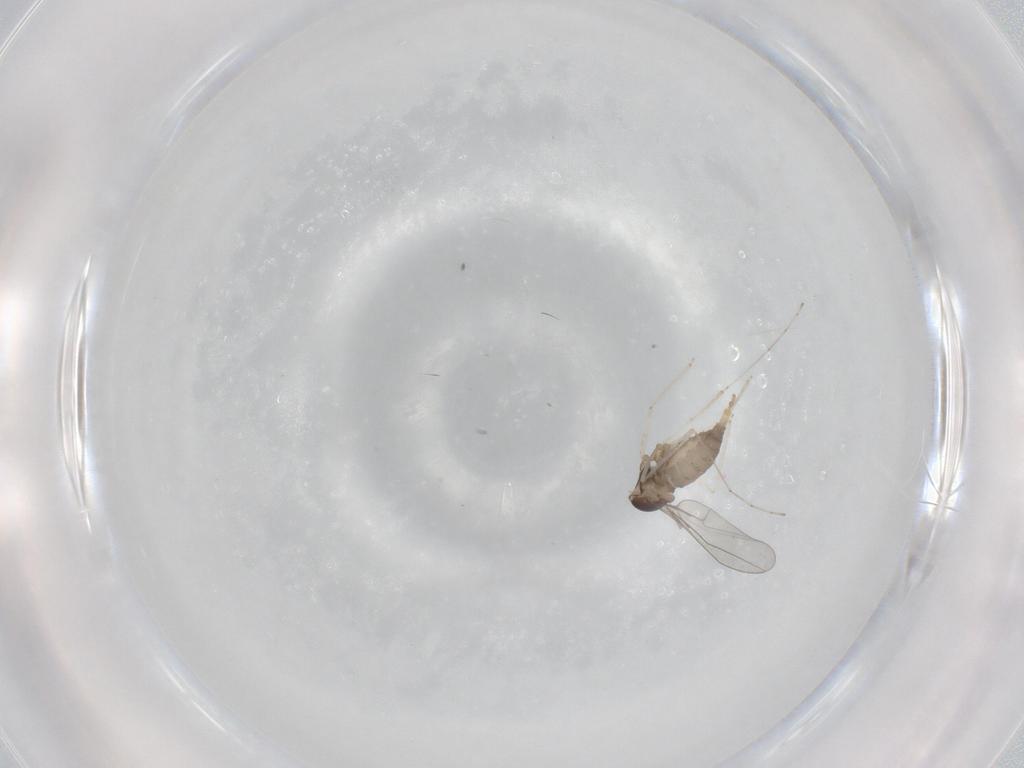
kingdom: Animalia
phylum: Arthropoda
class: Insecta
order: Diptera
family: Cecidomyiidae
